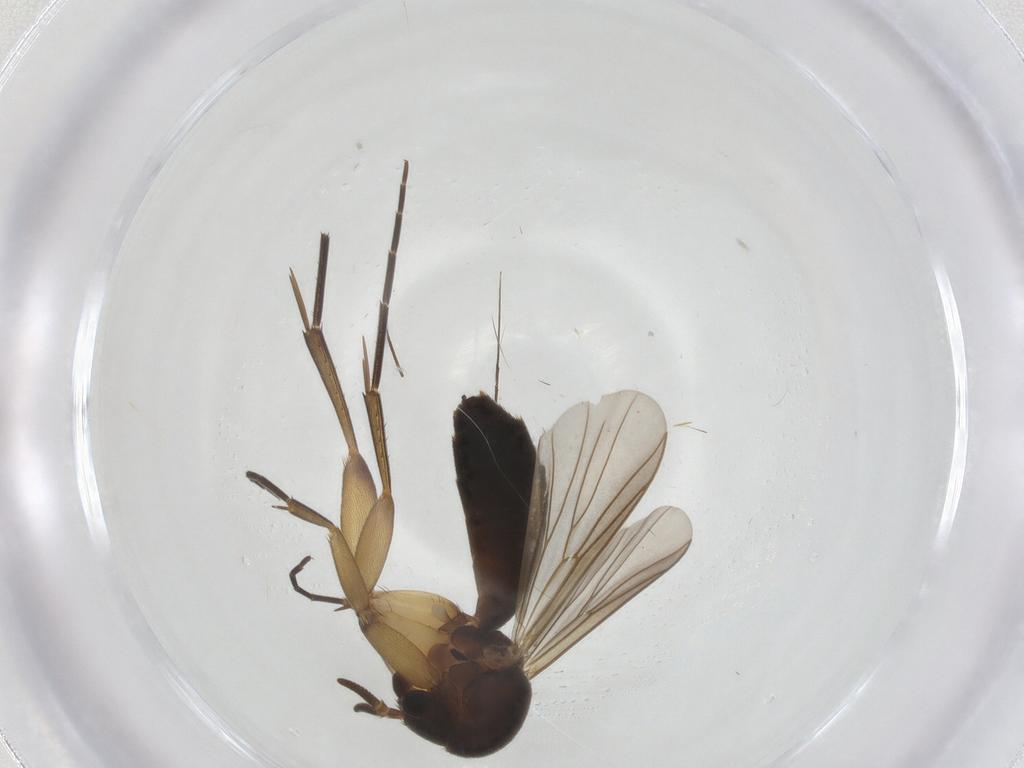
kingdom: Animalia
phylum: Arthropoda
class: Insecta
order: Diptera
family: Mycetophilidae
